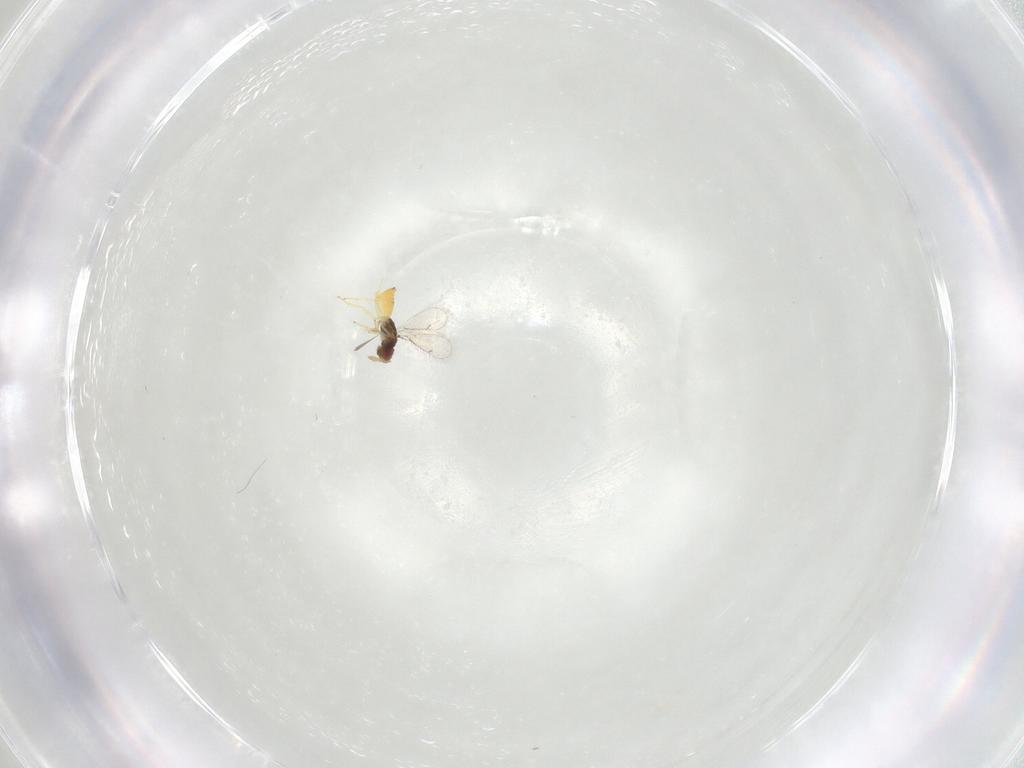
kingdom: Animalia
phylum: Arthropoda
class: Insecta
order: Hymenoptera
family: Eulophidae
